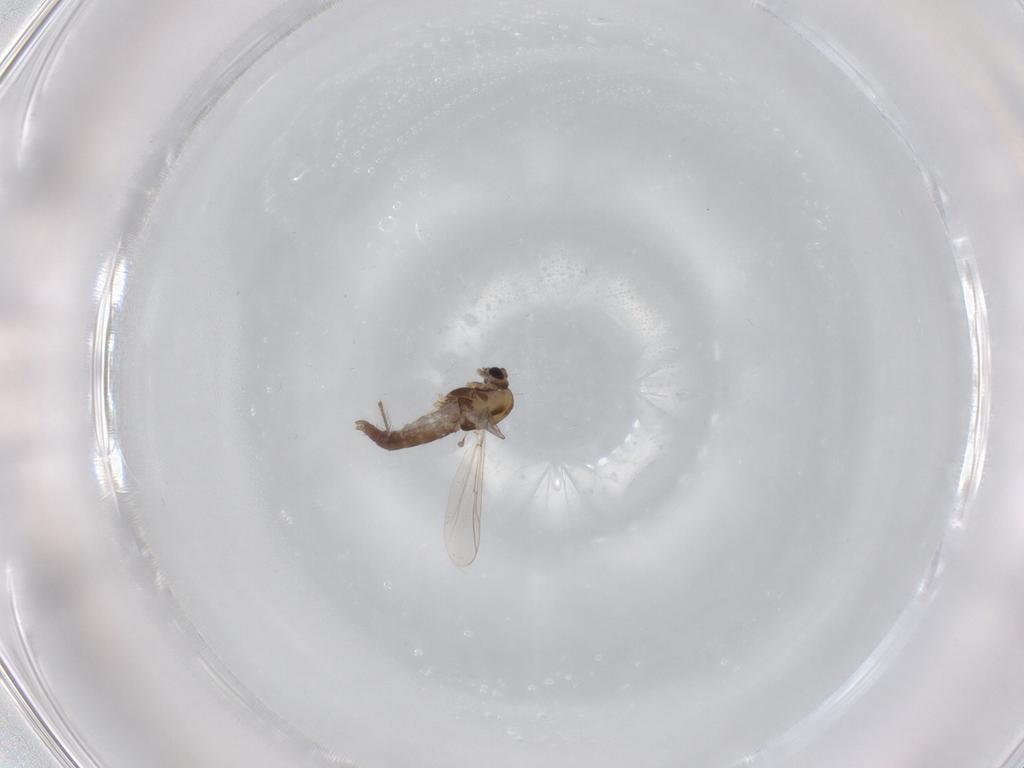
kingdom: Animalia
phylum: Arthropoda
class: Insecta
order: Diptera
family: Chironomidae
